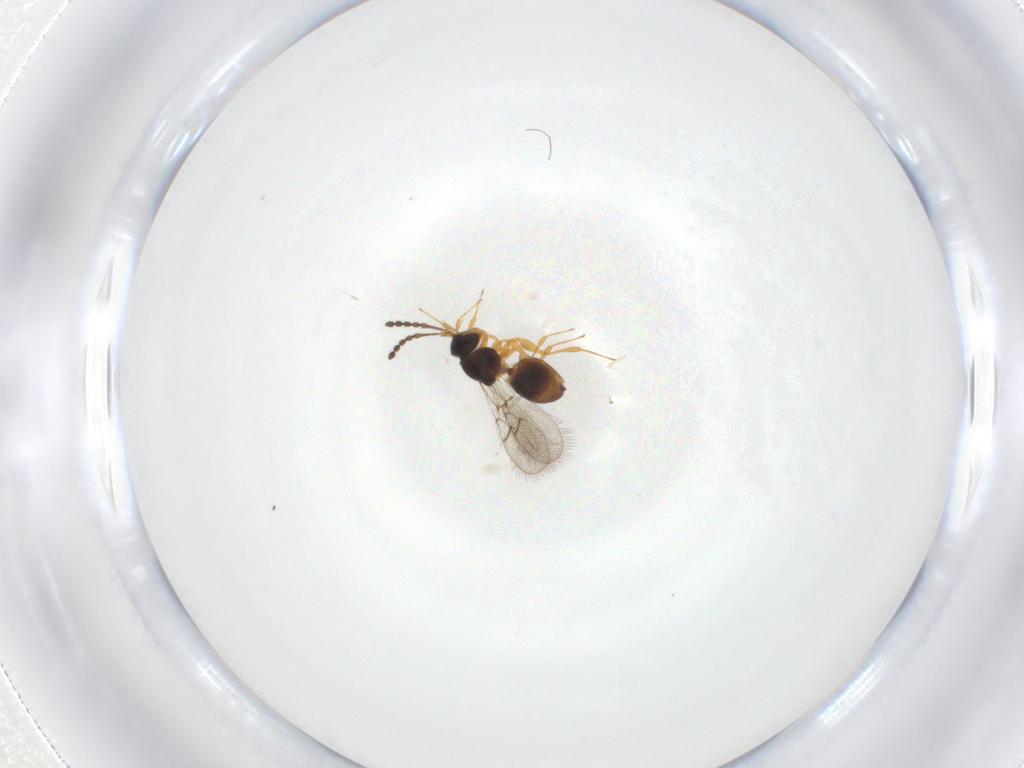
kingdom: Animalia
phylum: Arthropoda
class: Insecta
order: Hymenoptera
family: Figitidae
